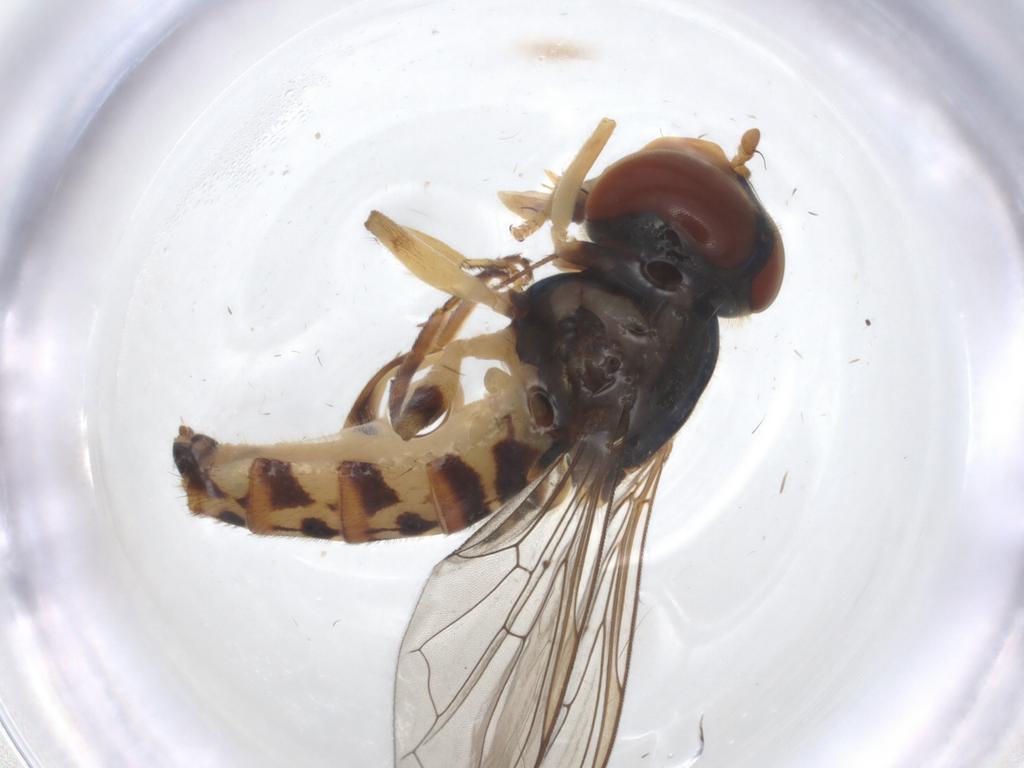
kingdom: Animalia
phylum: Arthropoda
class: Insecta
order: Diptera
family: Syrphidae
